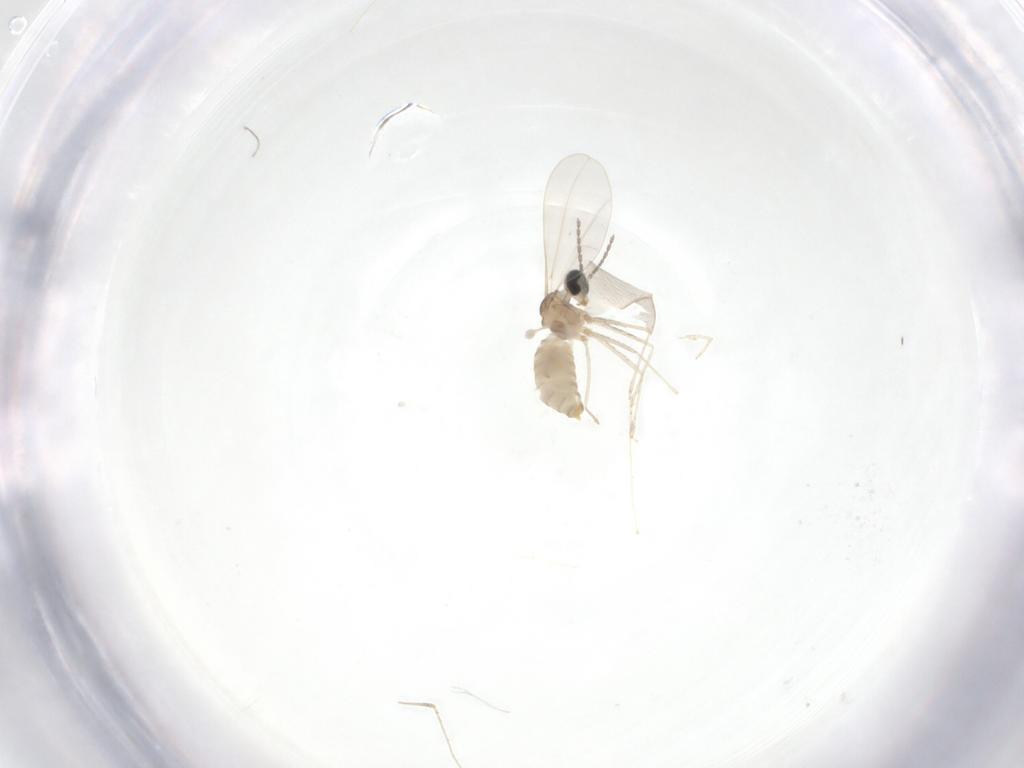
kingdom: Animalia
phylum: Arthropoda
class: Insecta
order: Diptera
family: Cecidomyiidae
